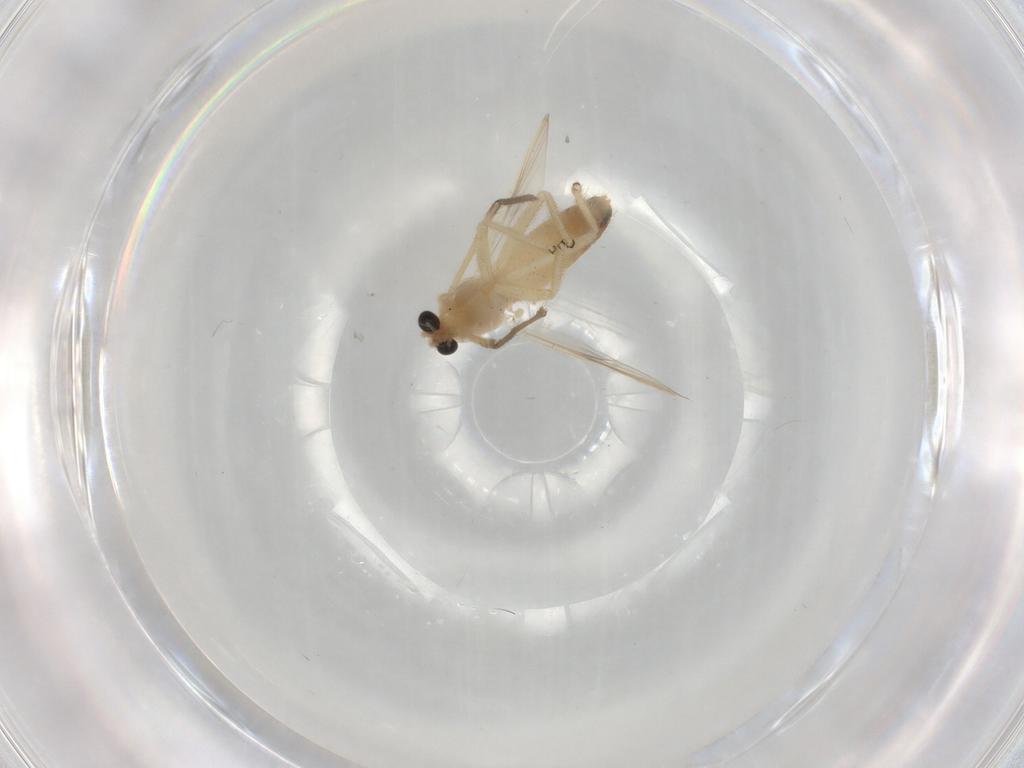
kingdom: Animalia
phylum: Arthropoda
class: Insecta
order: Diptera
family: Chironomidae
